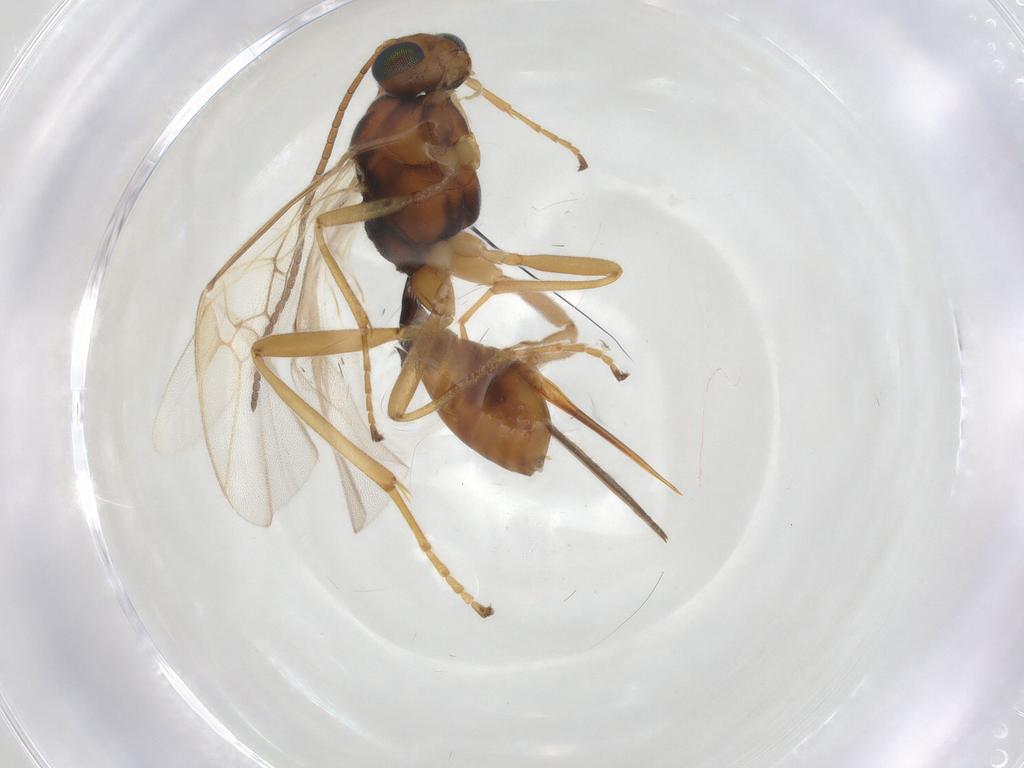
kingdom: Animalia
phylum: Arthropoda
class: Insecta
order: Hymenoptera
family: Braconidae
